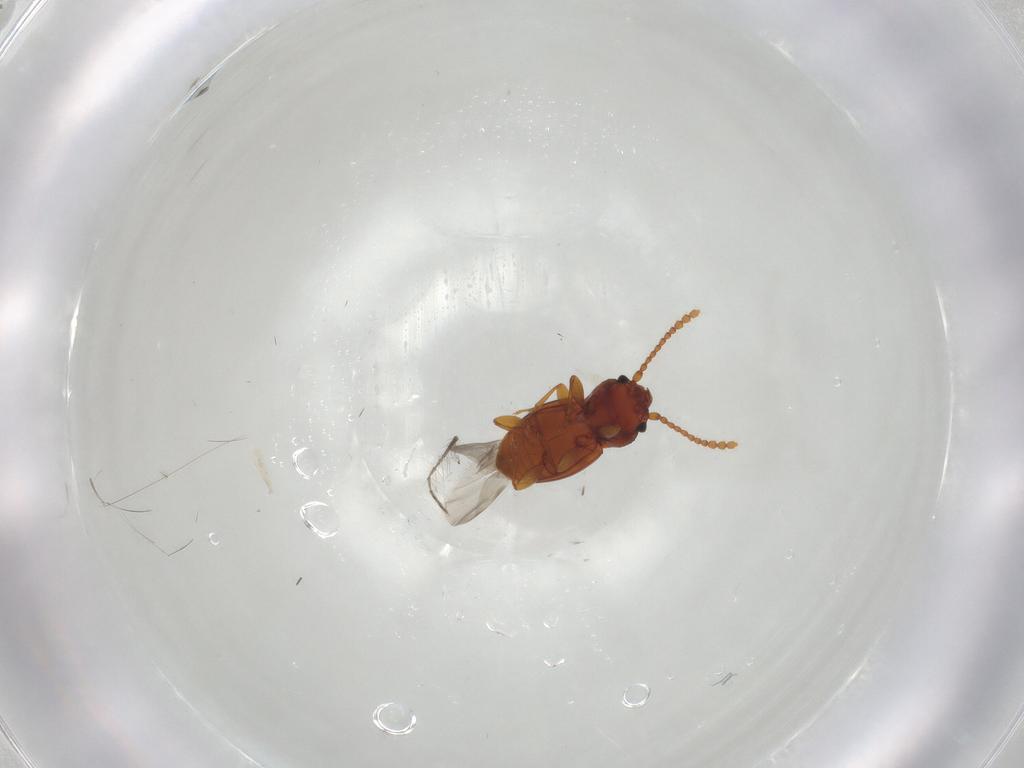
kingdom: Animalia
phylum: Arthropoda
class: Insecta
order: Coleoptera
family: Laemophloeidae
